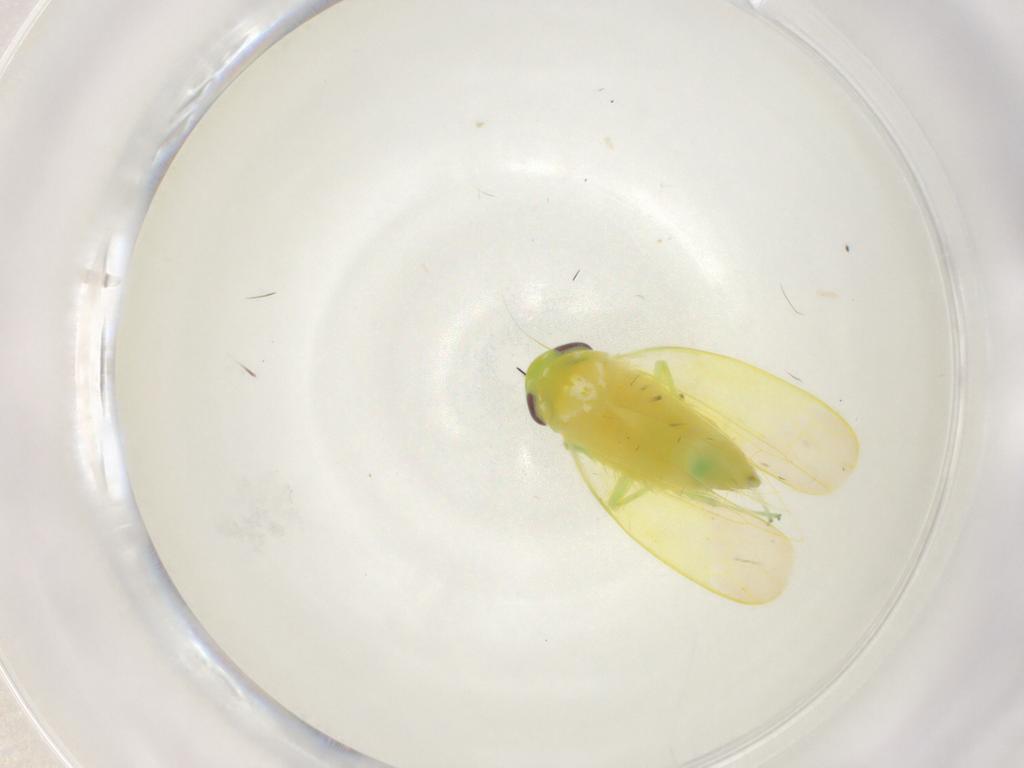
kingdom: Animalia
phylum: Arthropoda
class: Insecta
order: Hemiptera
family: Cicadellidae
